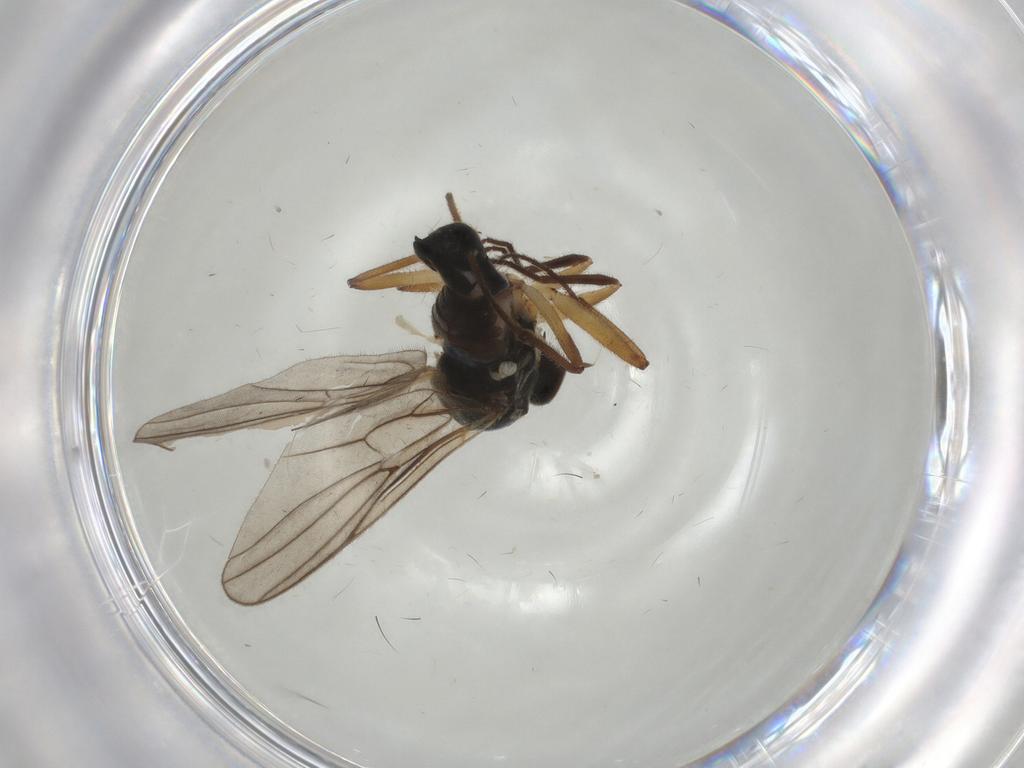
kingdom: Animalia
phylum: Arthropoda
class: Insecta
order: Diptera
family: Hybotidae
